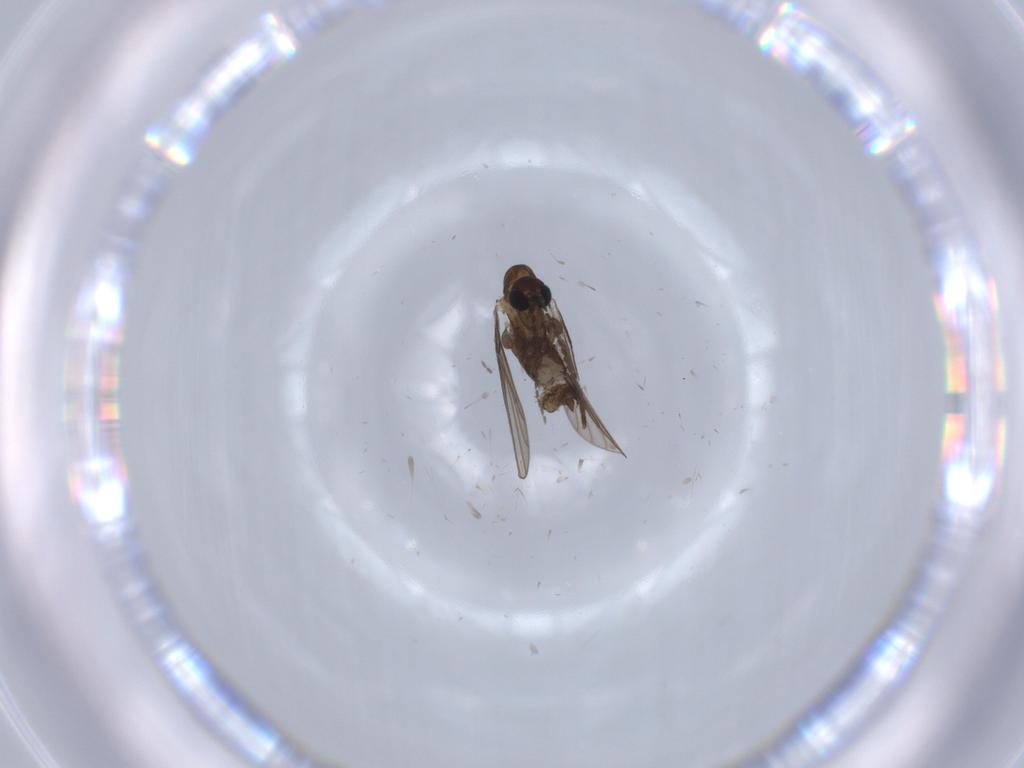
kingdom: Animalia
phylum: Arthropoda
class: Insecta
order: Diptera
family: Psychodidae
